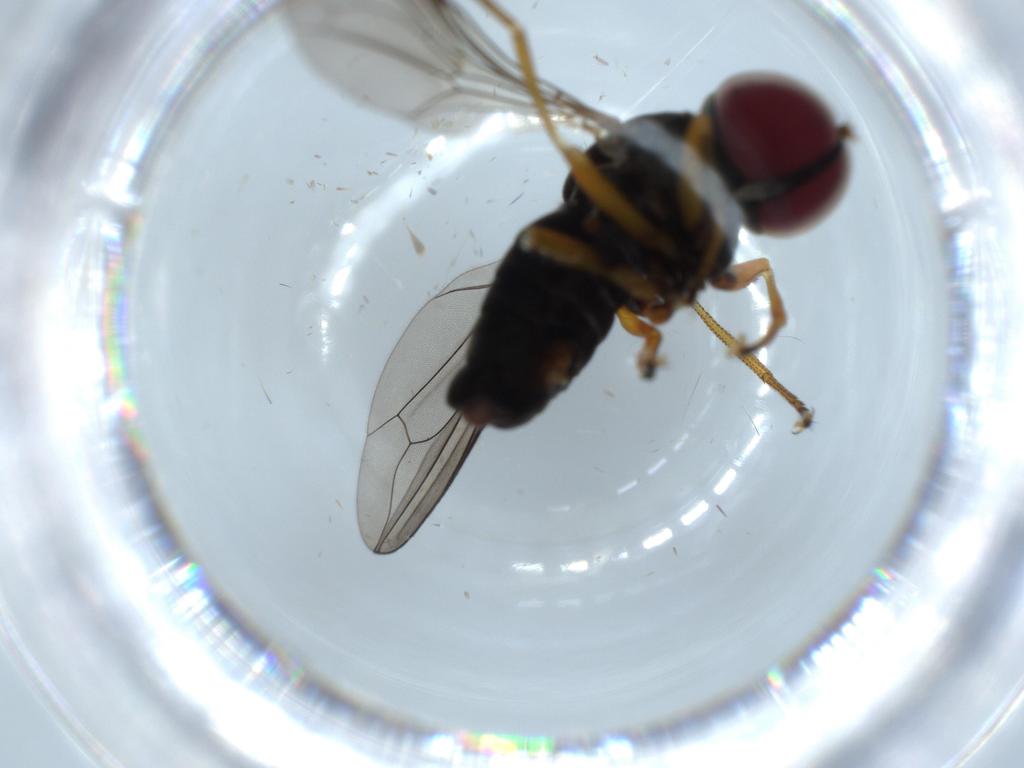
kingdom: Animalia
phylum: Arthropoda
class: Insecta
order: Diptera
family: Pipunculidae
